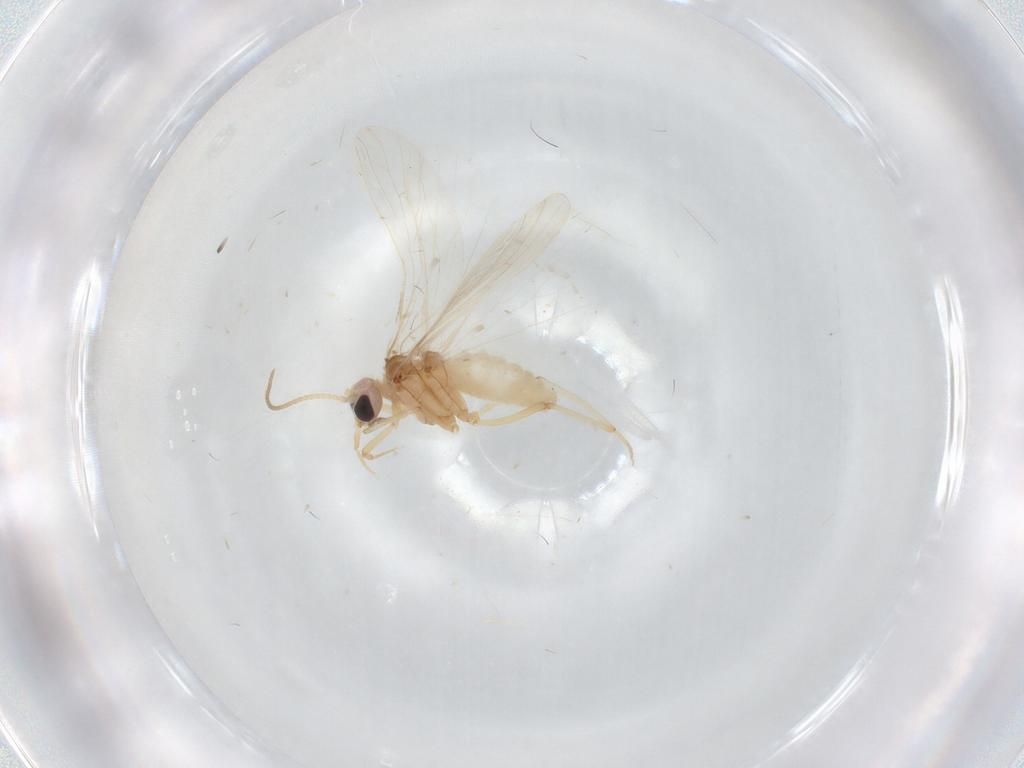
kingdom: Animalia
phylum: Arthropoda
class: Insecta
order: Neuroptera
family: Coniopterygidae
